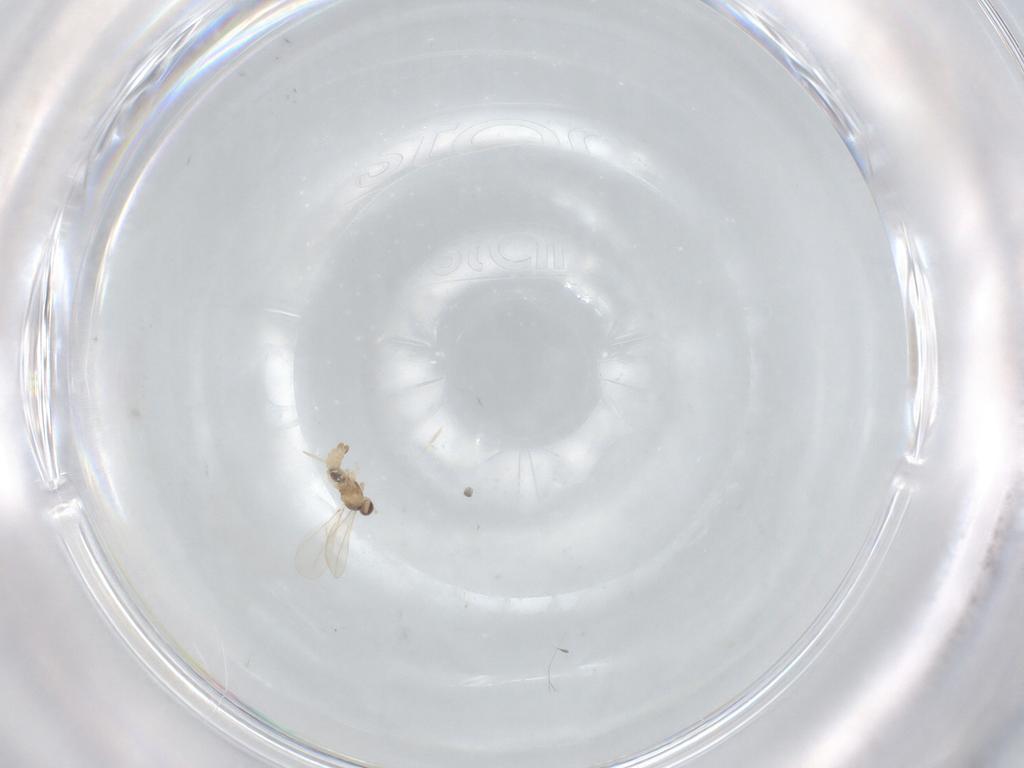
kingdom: Animalia
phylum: Arthropoda
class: Insecta
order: Diptera
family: Cecidomyiidae
